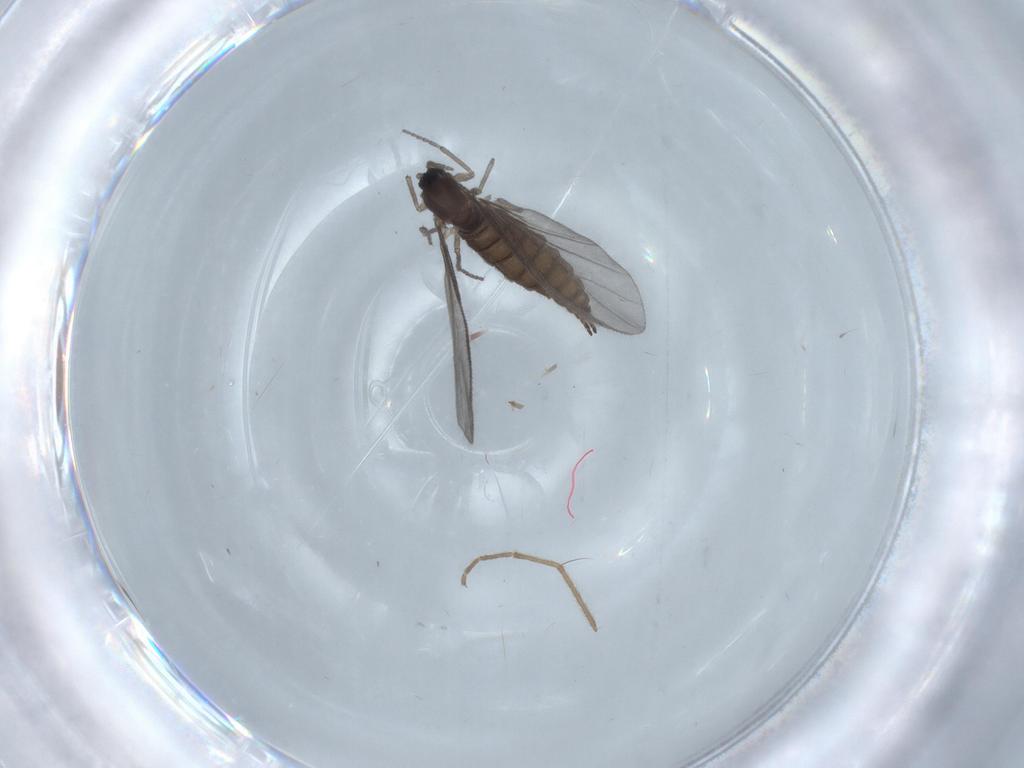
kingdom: Animalia
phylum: Arthropoda
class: Insecta
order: Diptera
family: Sciaridae
